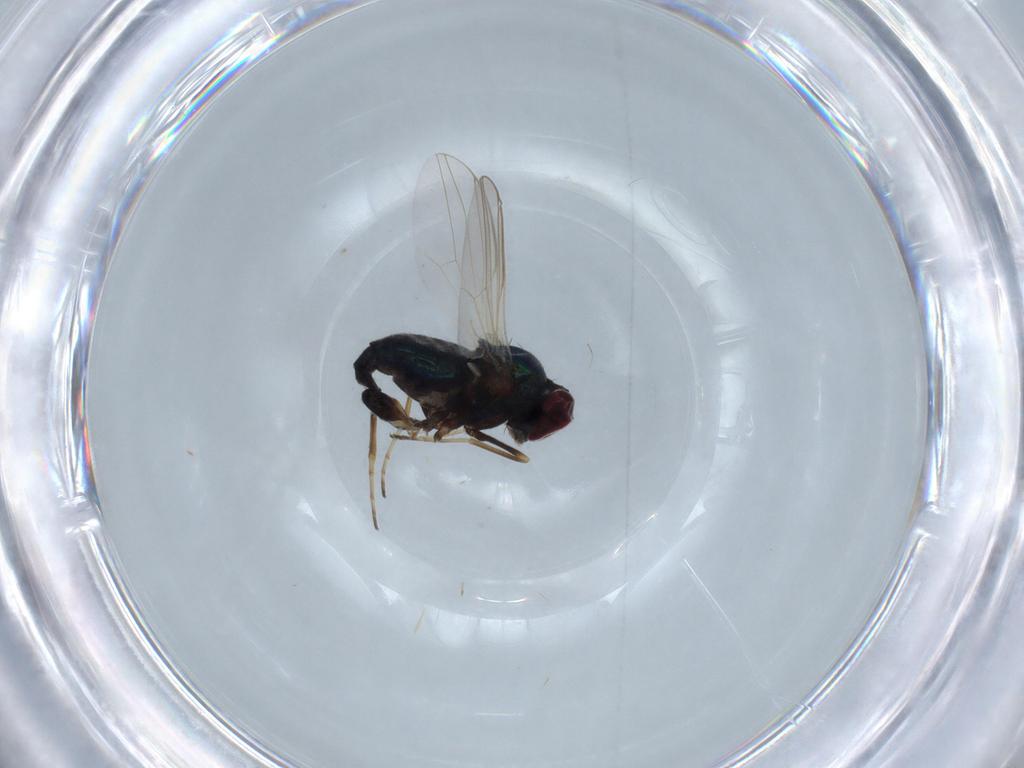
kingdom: Animalia
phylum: Arthropoda
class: Insecta
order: Diptera
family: Dolichopodidae
